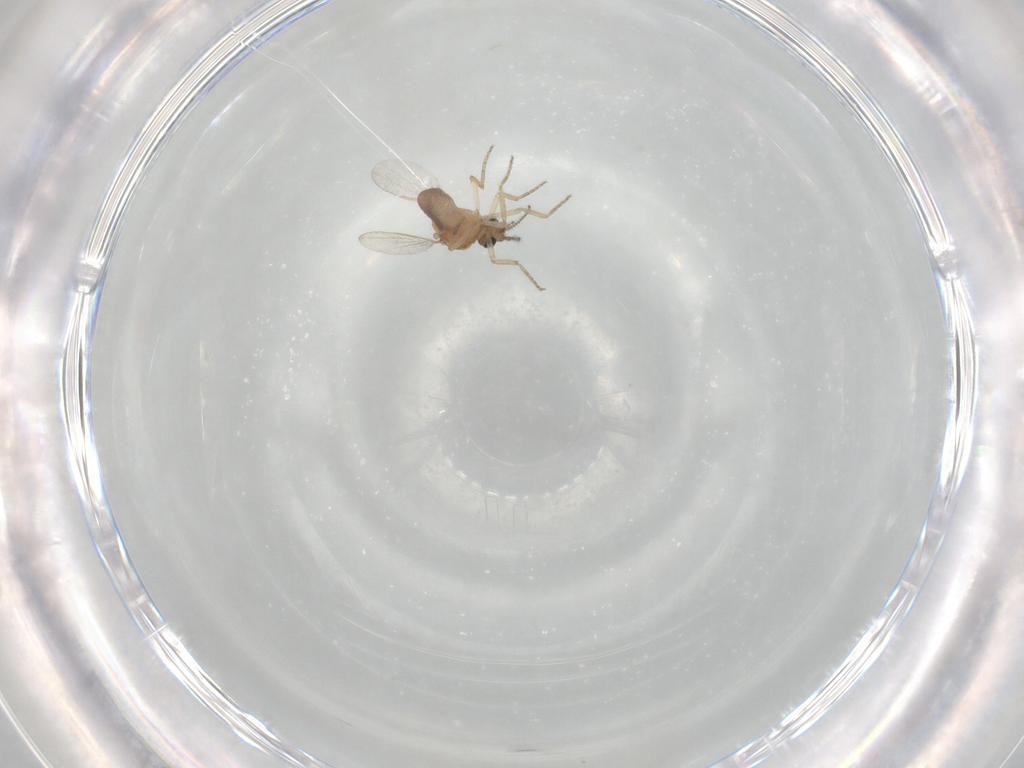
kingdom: Animalia
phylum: Arthropoda
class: Insecta
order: Diptera
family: Ceratopogonidae
